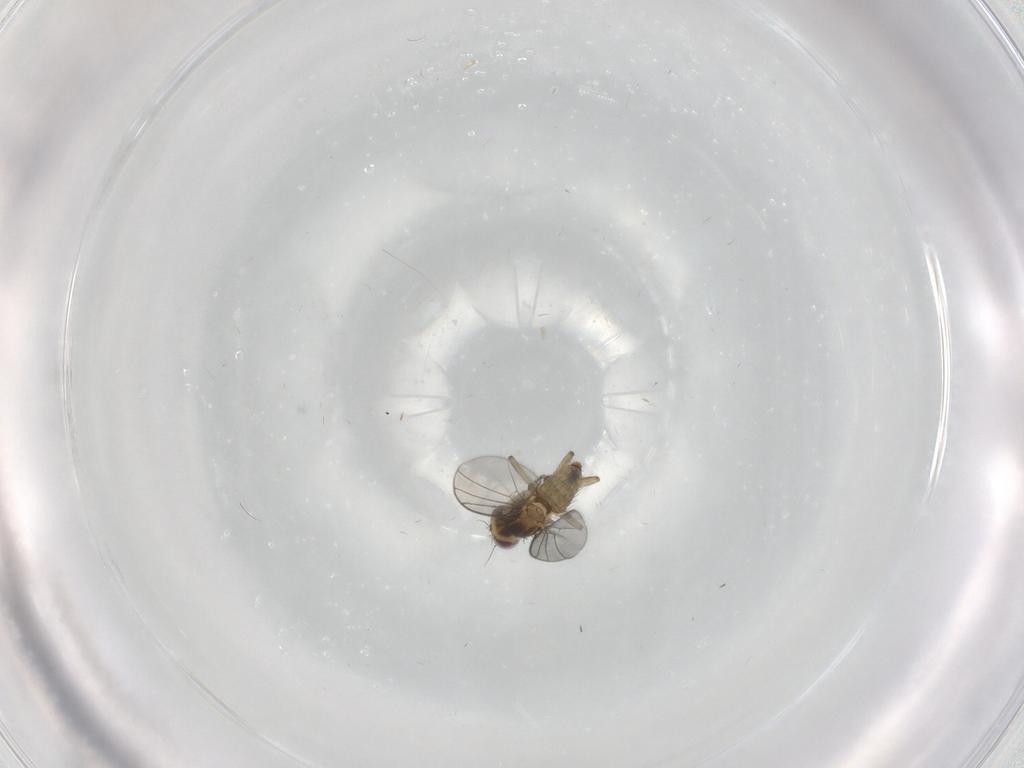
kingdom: Animalia
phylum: Arthropoda
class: Insecta
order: Diptera
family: Agromyzidae
